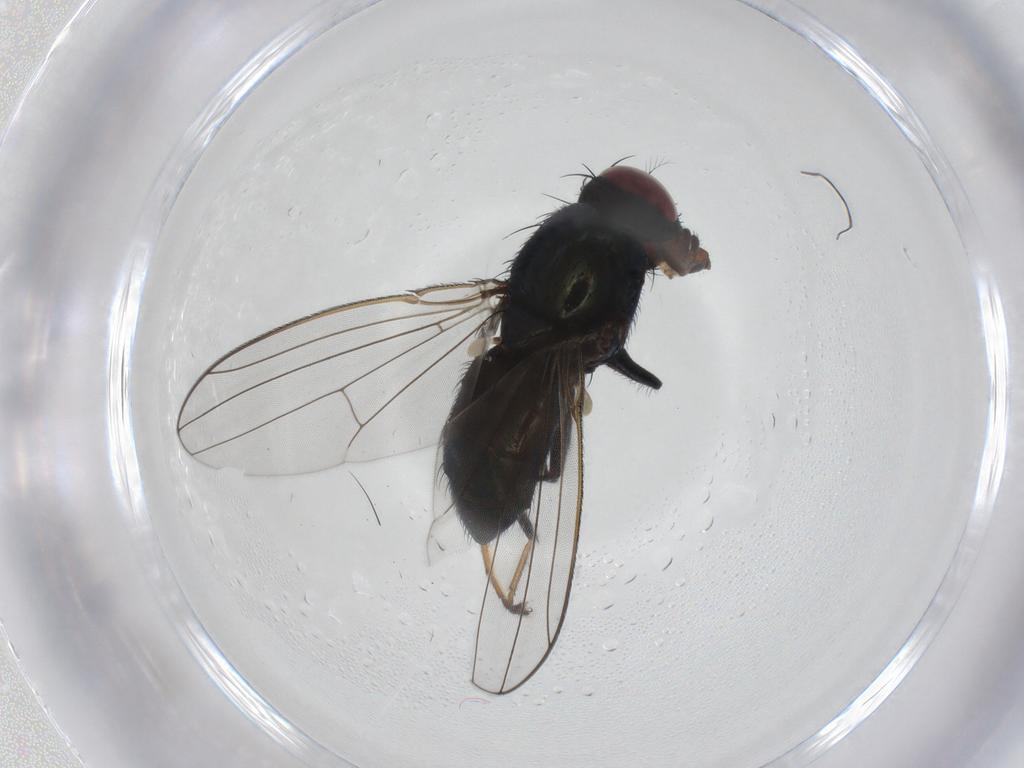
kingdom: Animalia
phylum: Arthropoda
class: Insecta
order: Diptera
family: Ephydridae
